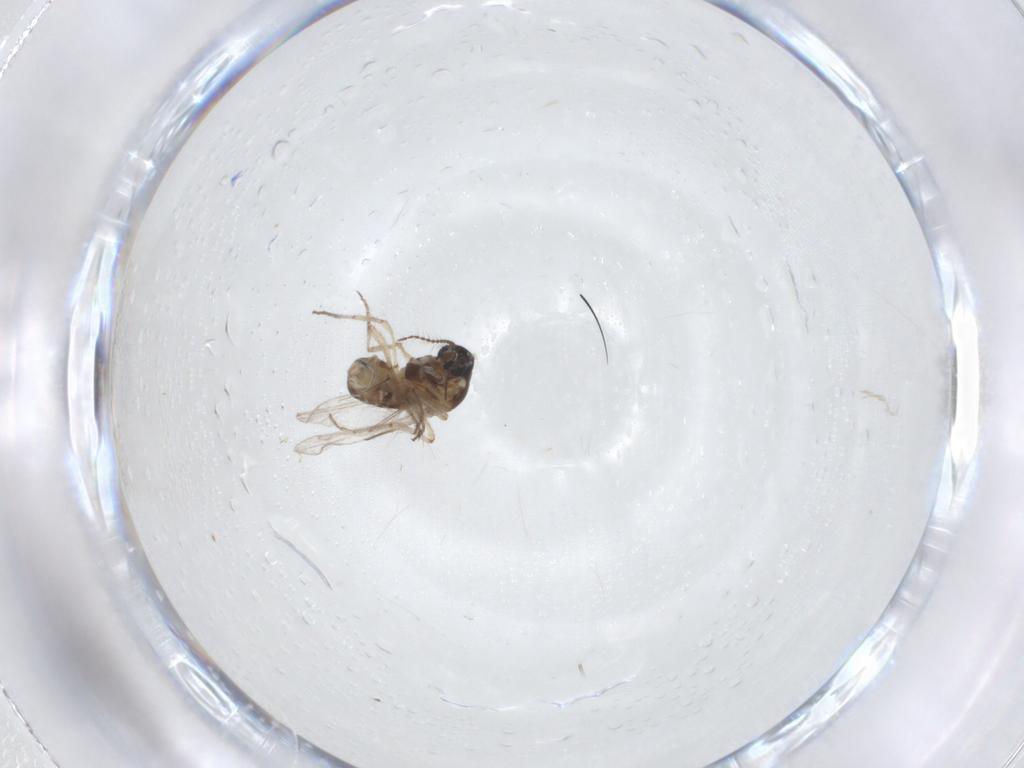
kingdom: Animalia
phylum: Arthropoda
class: Insecta
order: Diptera
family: Ceratopogonidae
